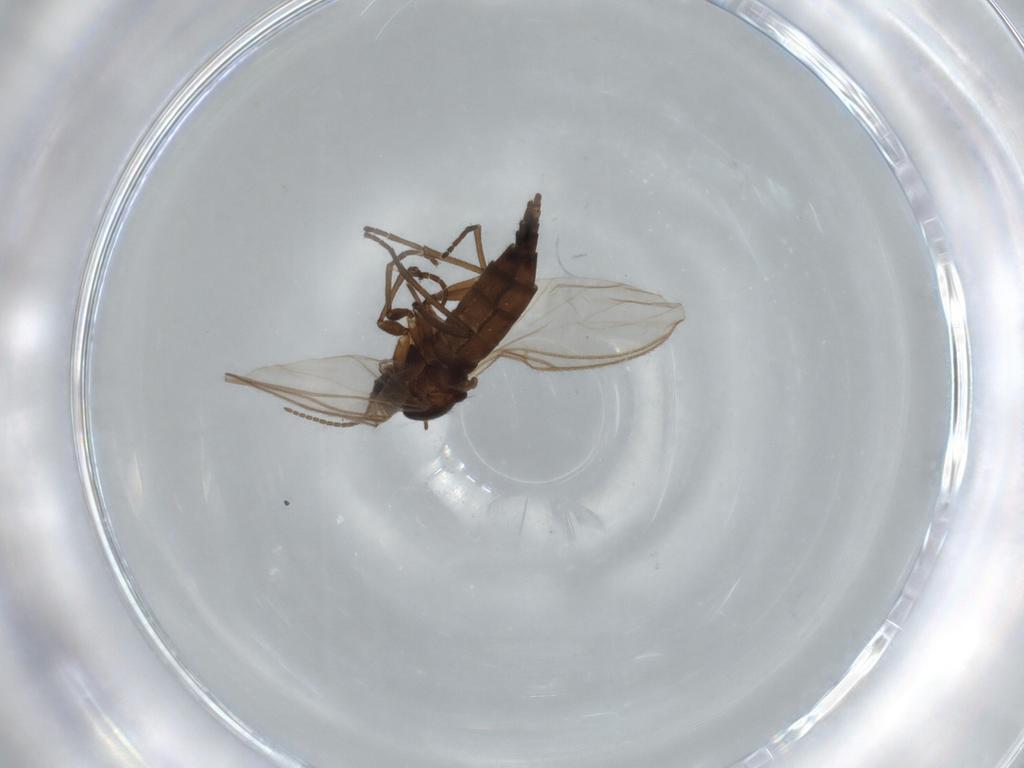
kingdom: Animalia
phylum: Arthropoda
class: Insecta
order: Diptera
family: Sciaridae
